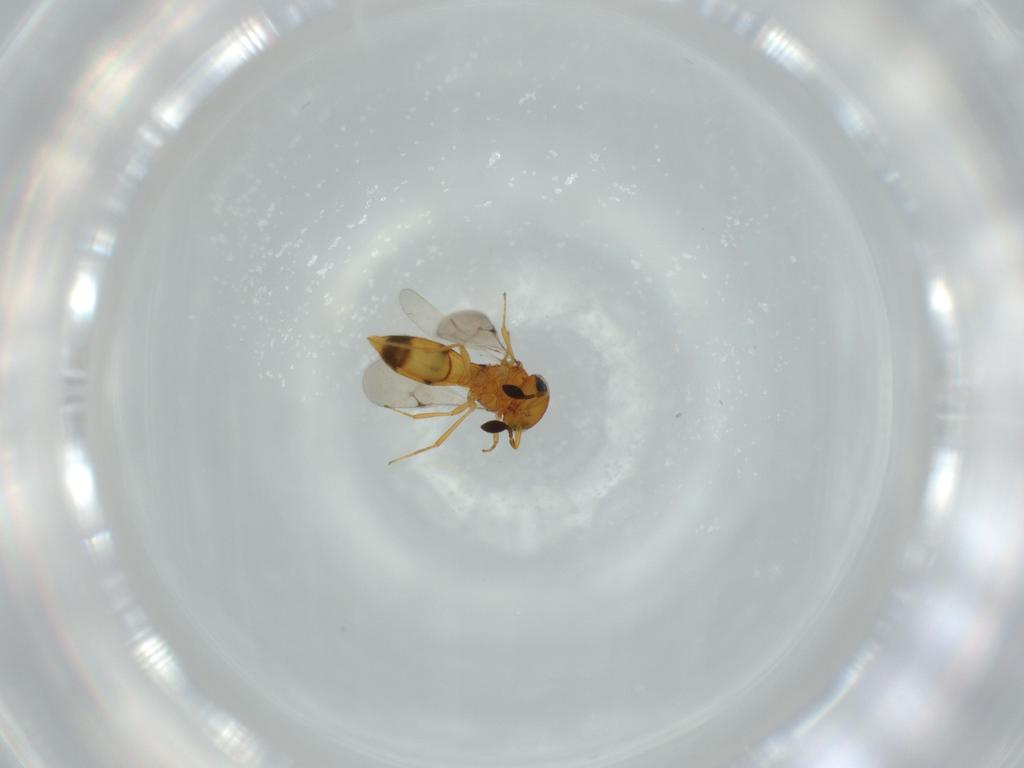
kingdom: Animalia
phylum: Arthropoda
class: Insecta
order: Hymenoptera
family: Scelionidae
